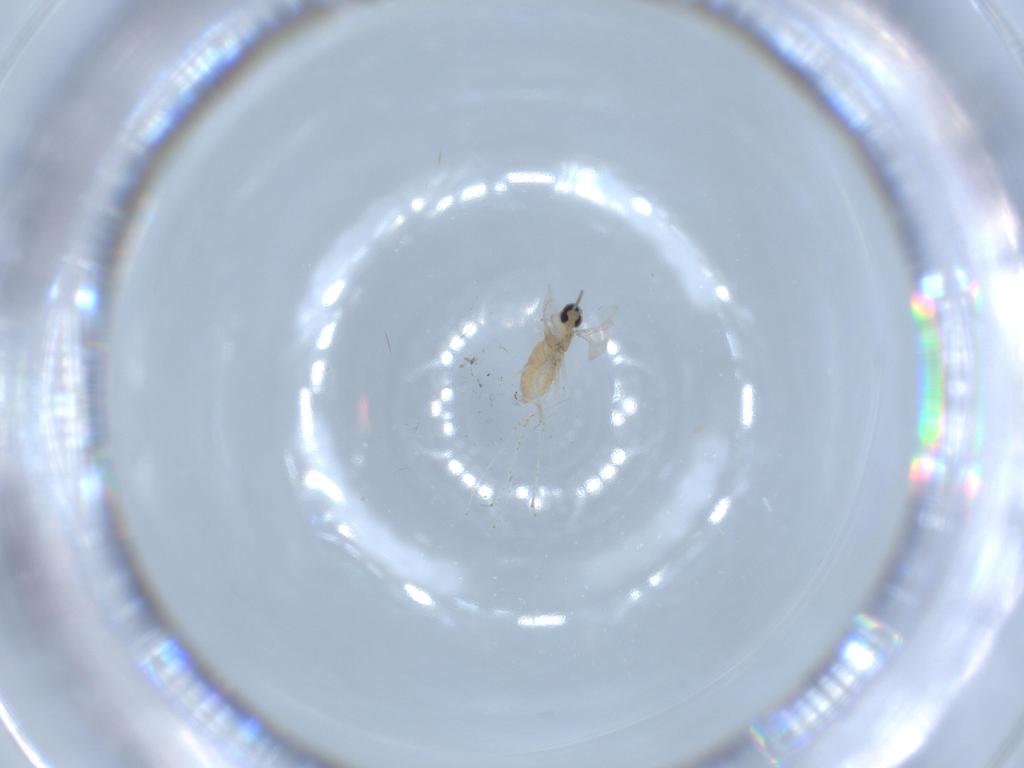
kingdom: Animalia
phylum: Arthropoda
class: Insecta
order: Diptera
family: Cecidomyiidae
